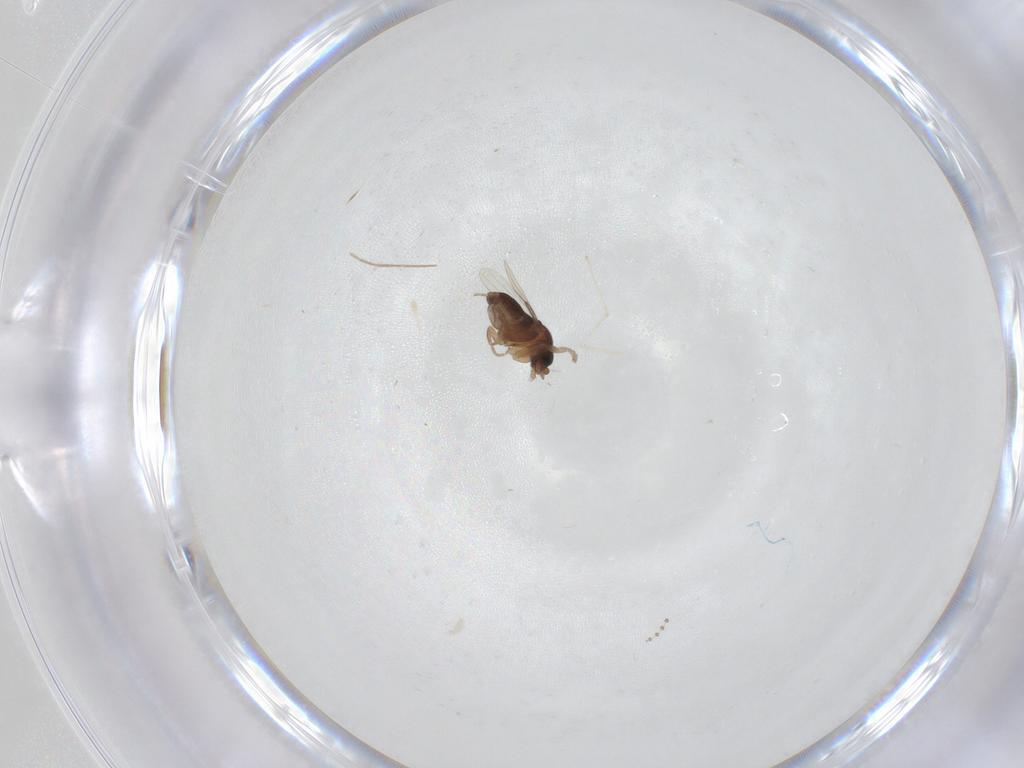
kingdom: Animalia
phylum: Arthropoda
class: Insecta
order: Diptera
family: Phoridae
